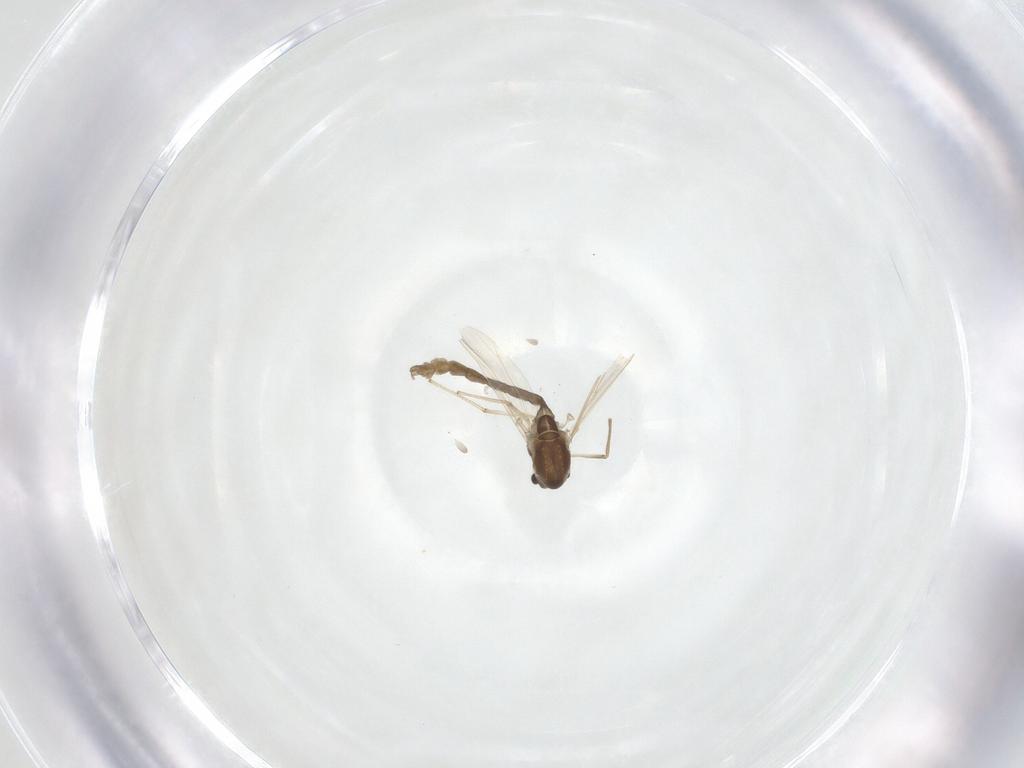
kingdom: Animalia
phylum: Arthropoda
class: Insecta
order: Diptera
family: Chironomidae
